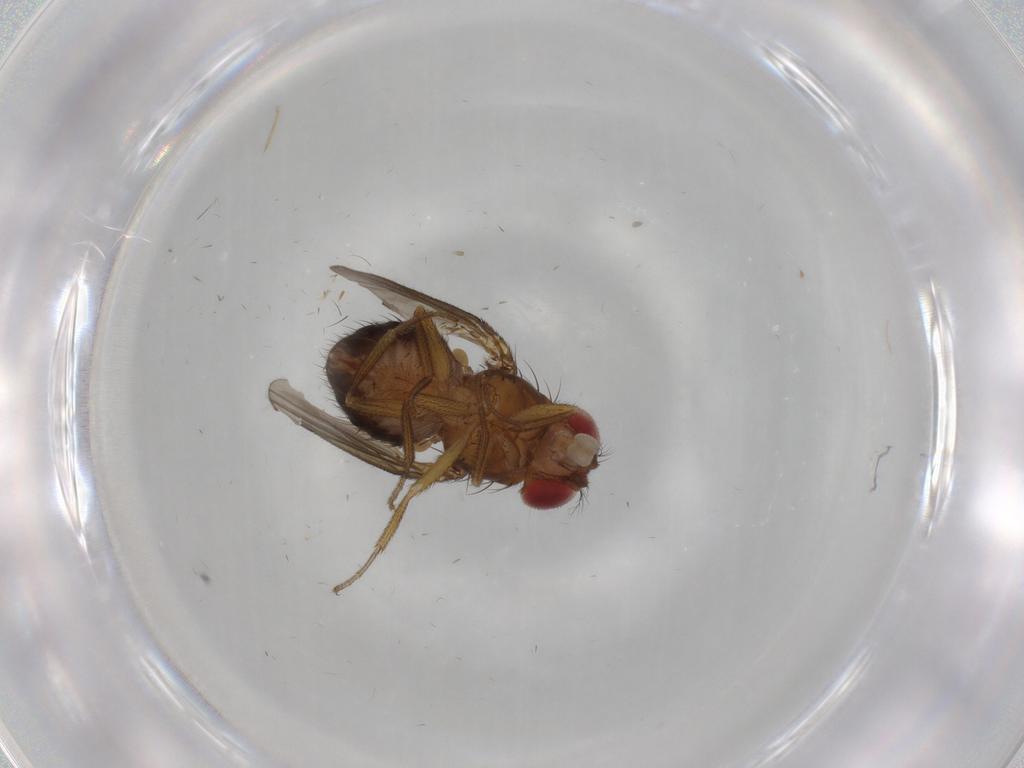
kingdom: Animalia
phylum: Arthropoda
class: Insecta
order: Diptera
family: Drosophilidae
